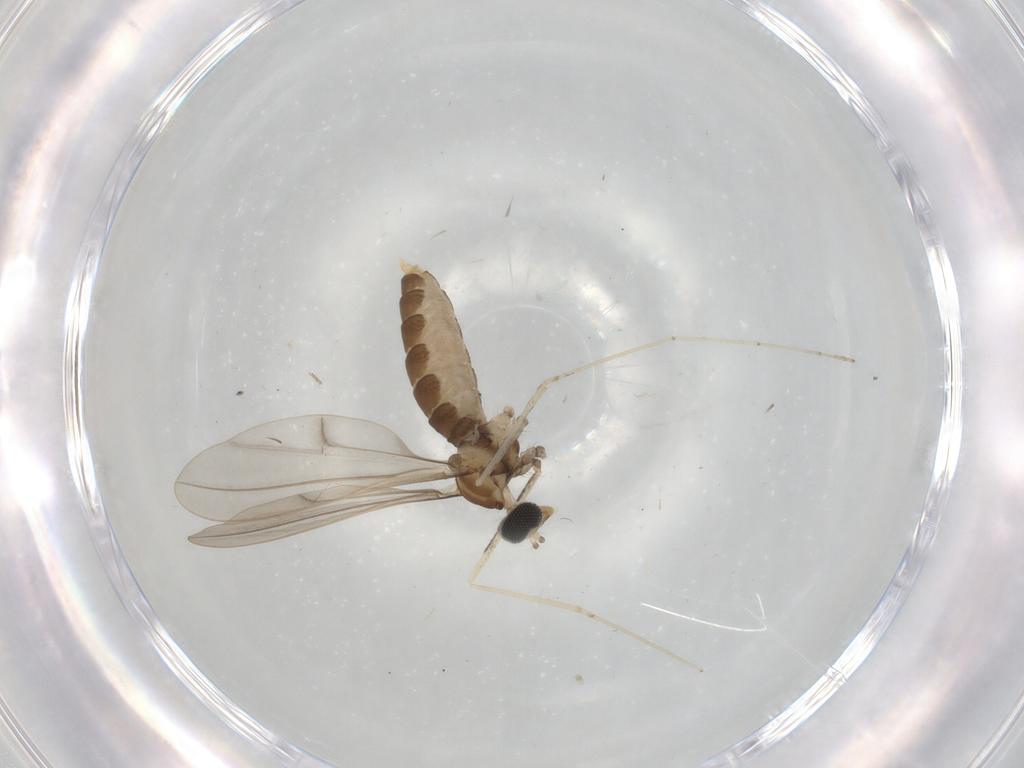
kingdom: Animalia
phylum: Arthropoda
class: Insecta
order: Diptera
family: Cecidomyiidae
